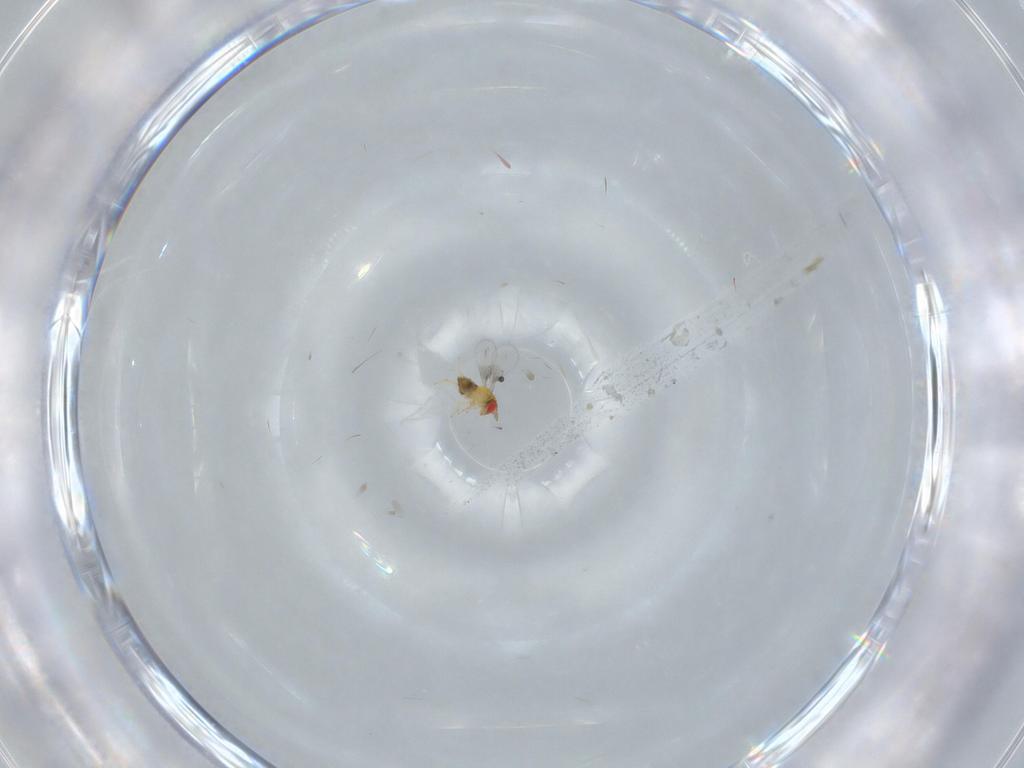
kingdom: Animalia
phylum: Arthropoda
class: Insecta
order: Hymenoptera
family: Trichogrammatidae
